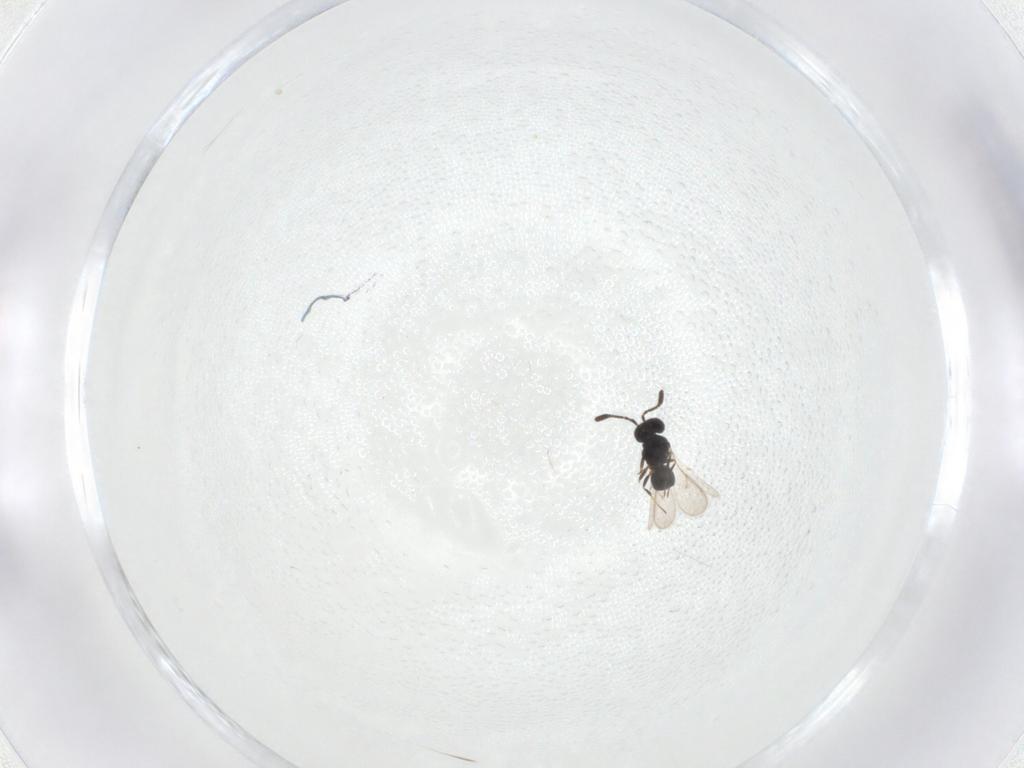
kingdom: Animalia
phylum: Arthropoda
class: Insecta
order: Hymenoptera
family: Scelionidae
